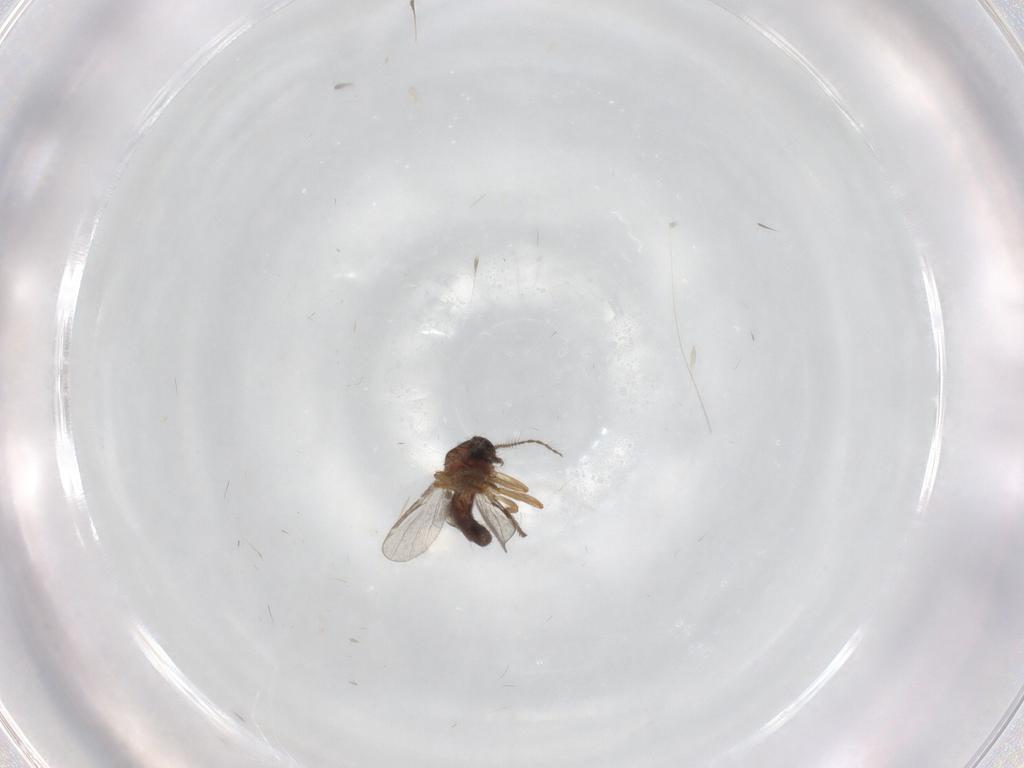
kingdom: Animalia
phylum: Arthropoda
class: Insecta
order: Diptera
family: Ceratopogonidae
